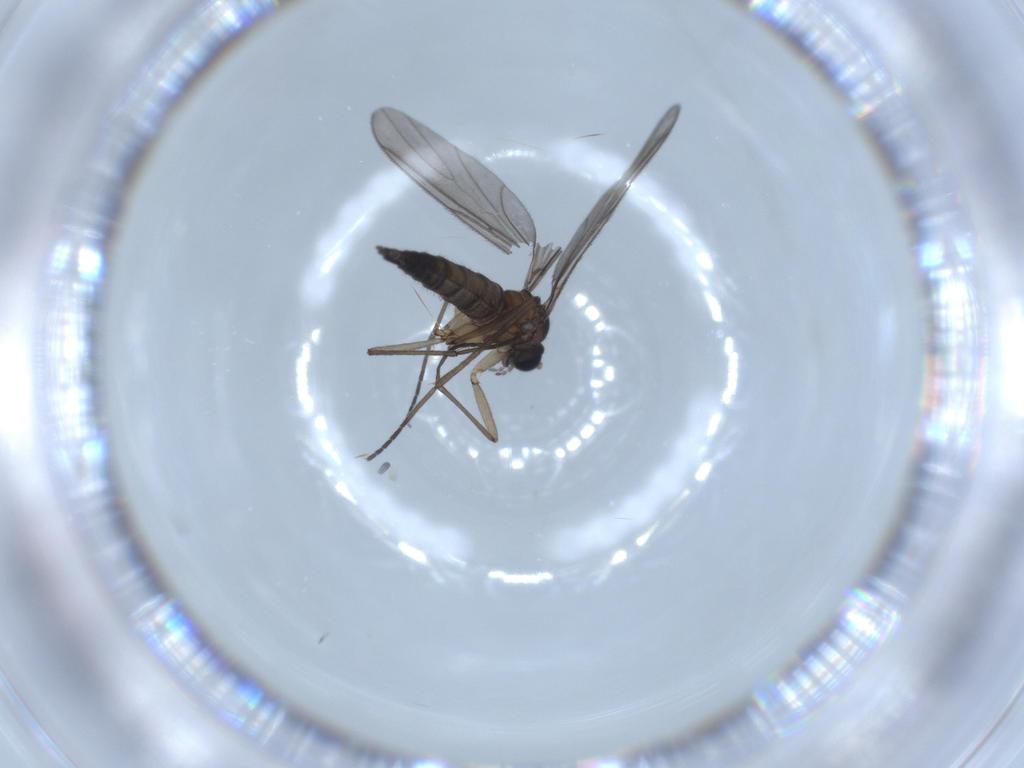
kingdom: Animalia
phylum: Arthropoda
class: Insecta
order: Diptera
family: Sciaridae
